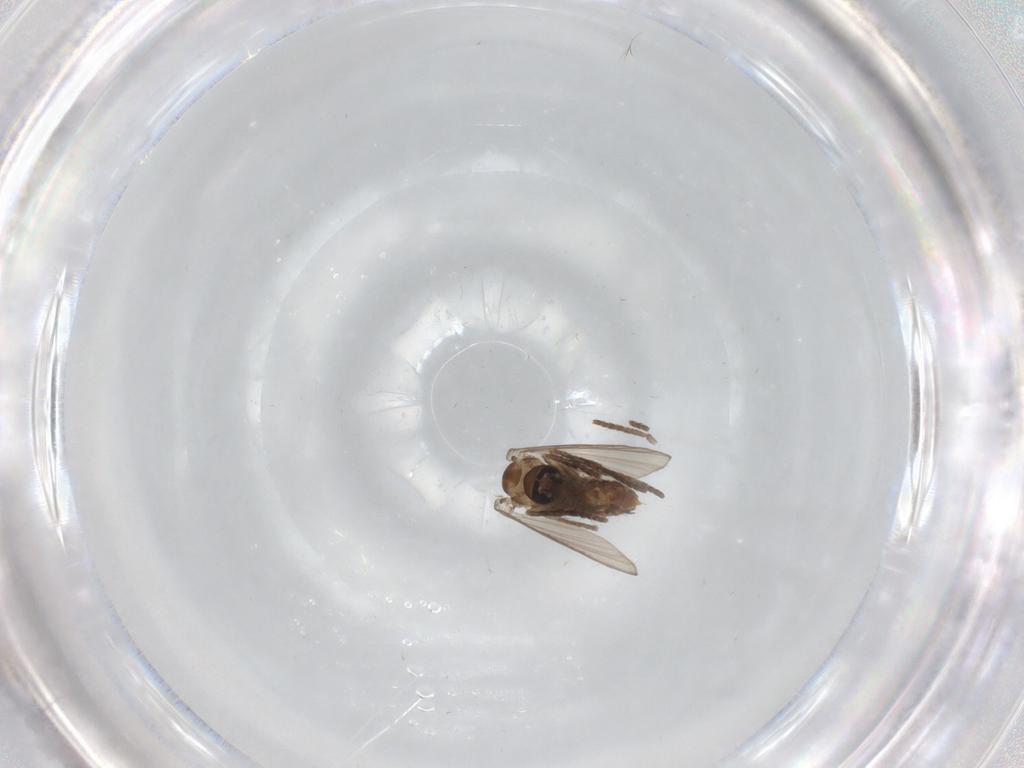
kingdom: Animalia
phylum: Arthropoda
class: Insecta
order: Diptera
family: Psychodidae
